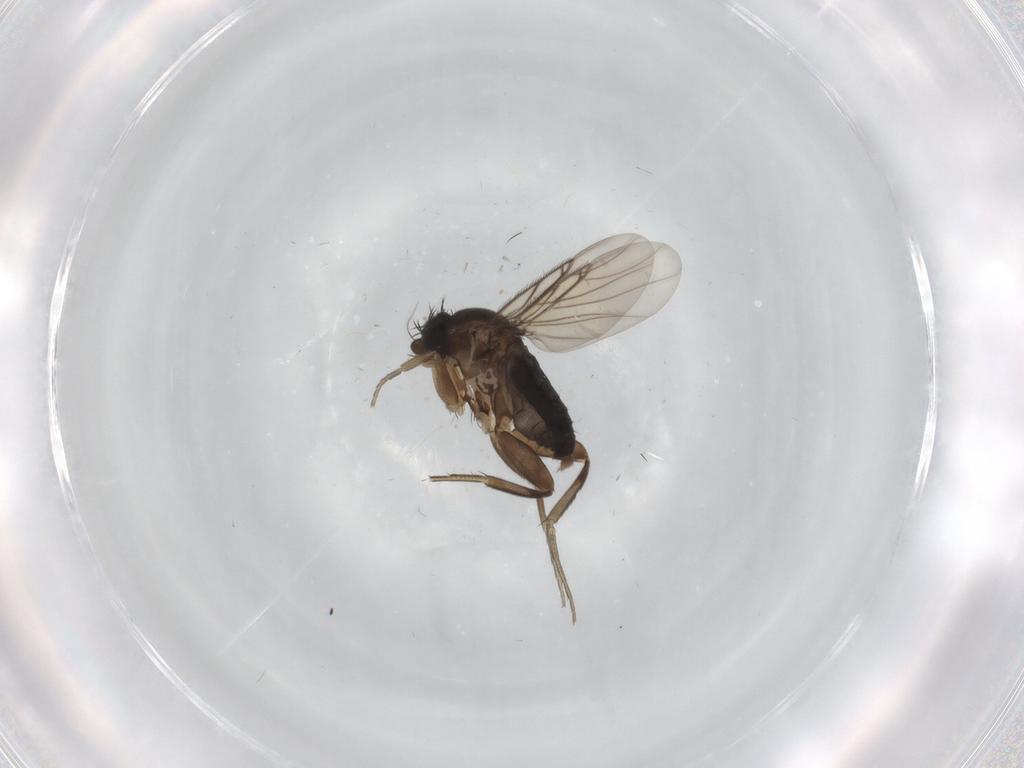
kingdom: Animalia
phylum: Arthropoda
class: Insecta
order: Diptera
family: Phoridae
